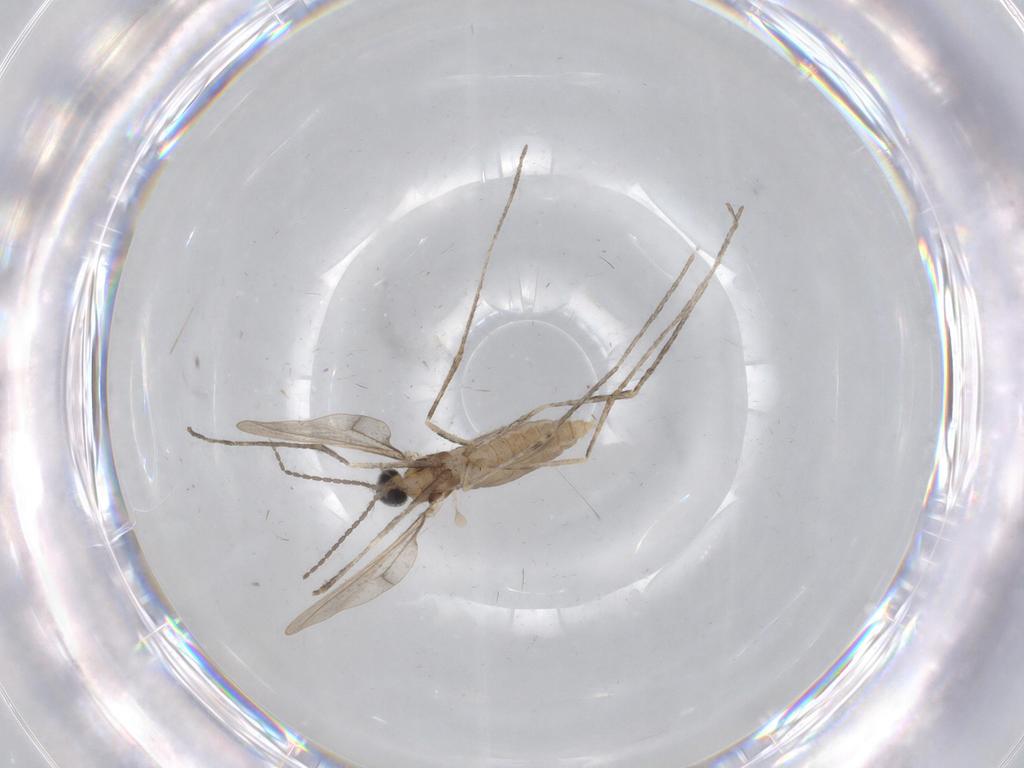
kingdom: Animalia
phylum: Arthropoda
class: Insecta
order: Diptera
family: Cecidomyiidae
